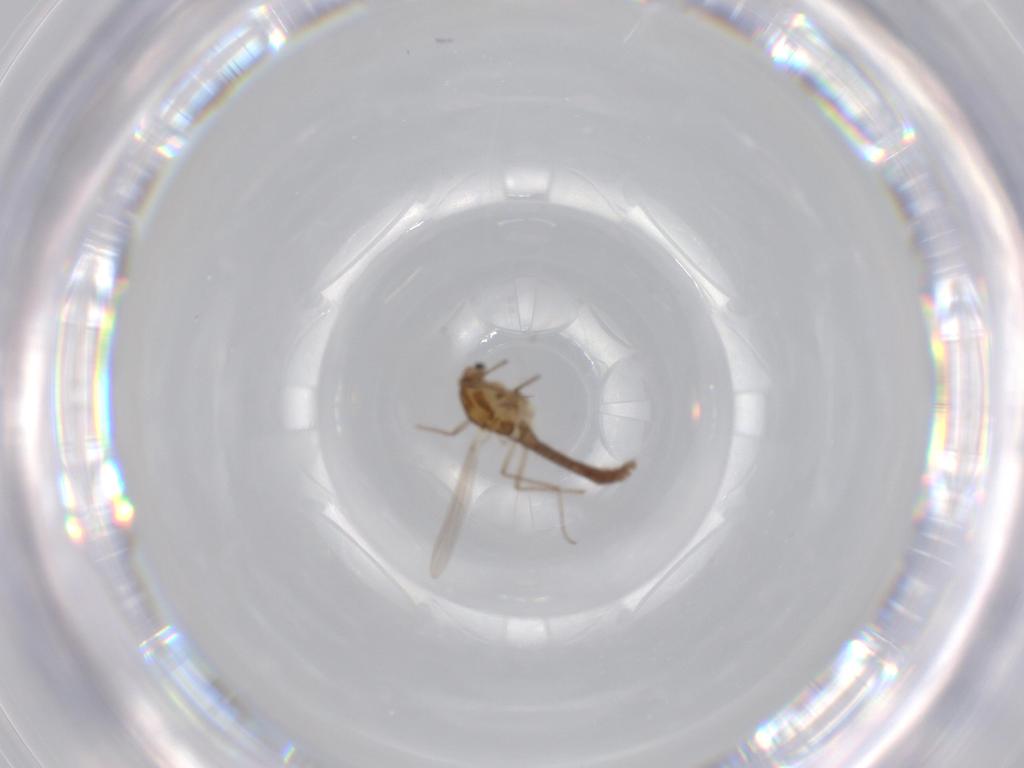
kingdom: Animalia
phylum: Arthropoda
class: Insecta
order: Diptera
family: Chironomidae
